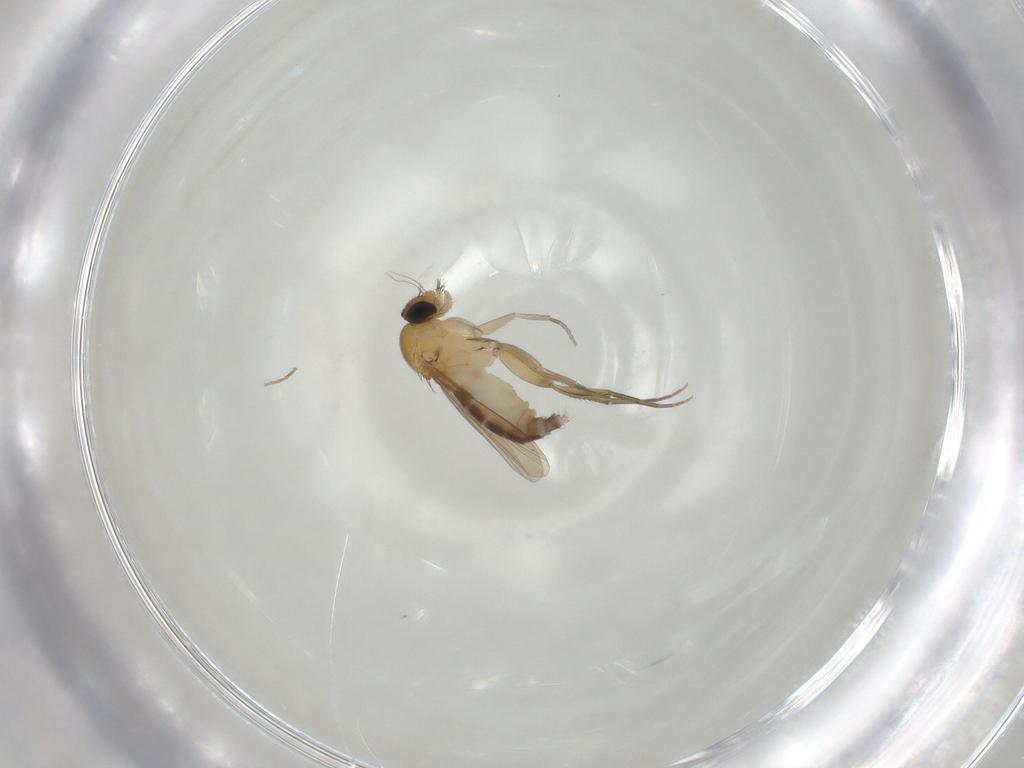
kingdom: Animalia
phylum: Arthropoda
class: Insecta
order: Diptera
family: Phoridae
